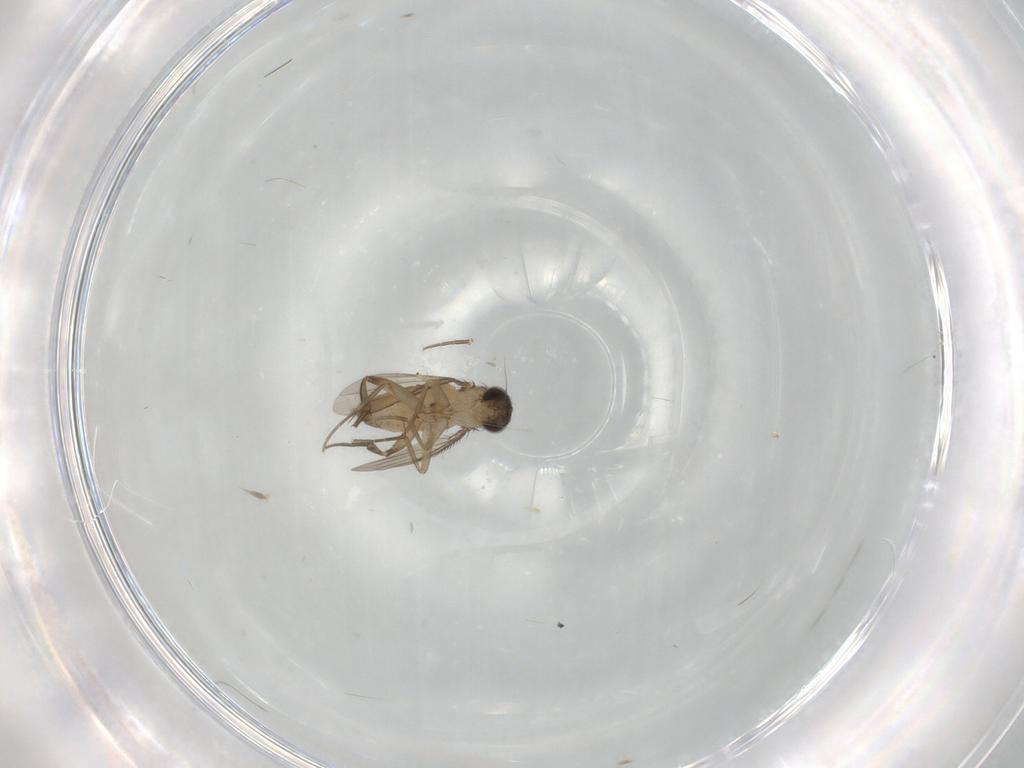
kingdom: Animalia
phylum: Arthropoda
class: Insecta
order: Diptera
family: Phoridae
